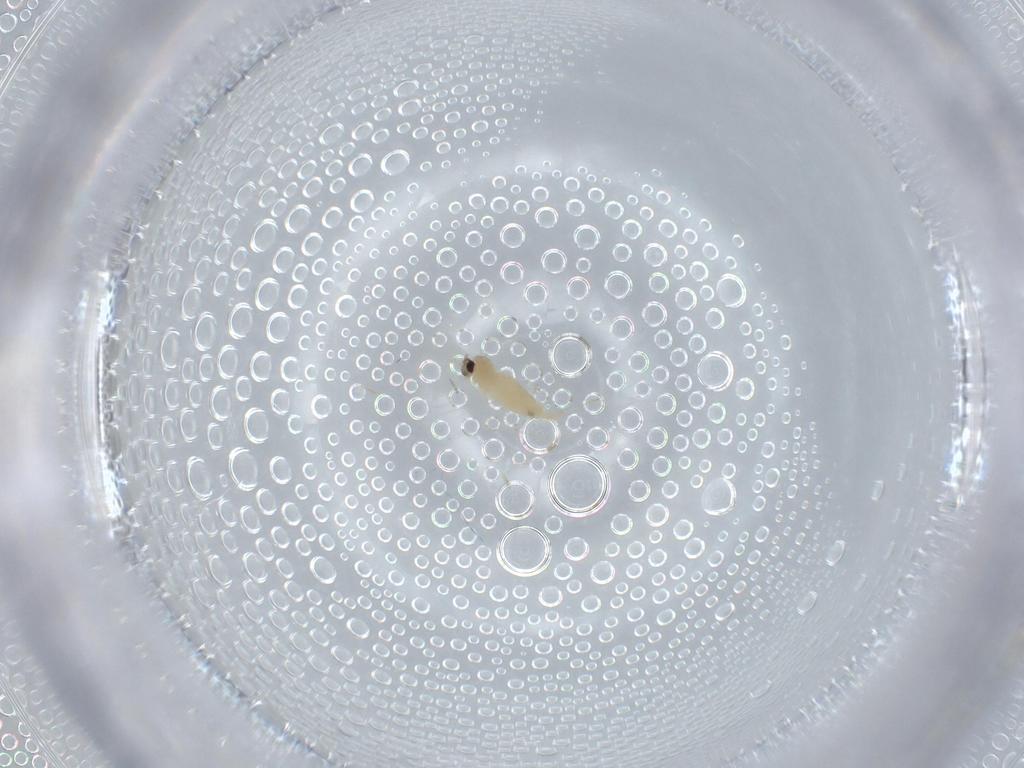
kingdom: Animalia
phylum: Arthropoda
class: Insecta
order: Diptera
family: Cecidomyiidae
